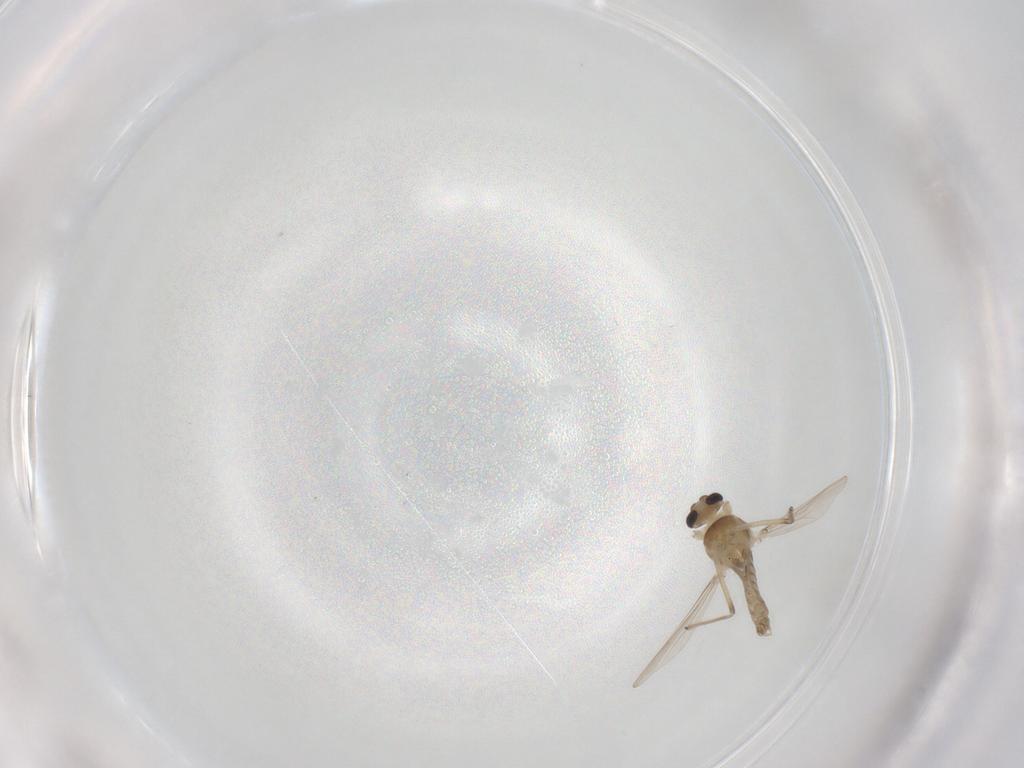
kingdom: Animalia
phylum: Arthropoda
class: Insecta
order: Diptera
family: Chironomidae
